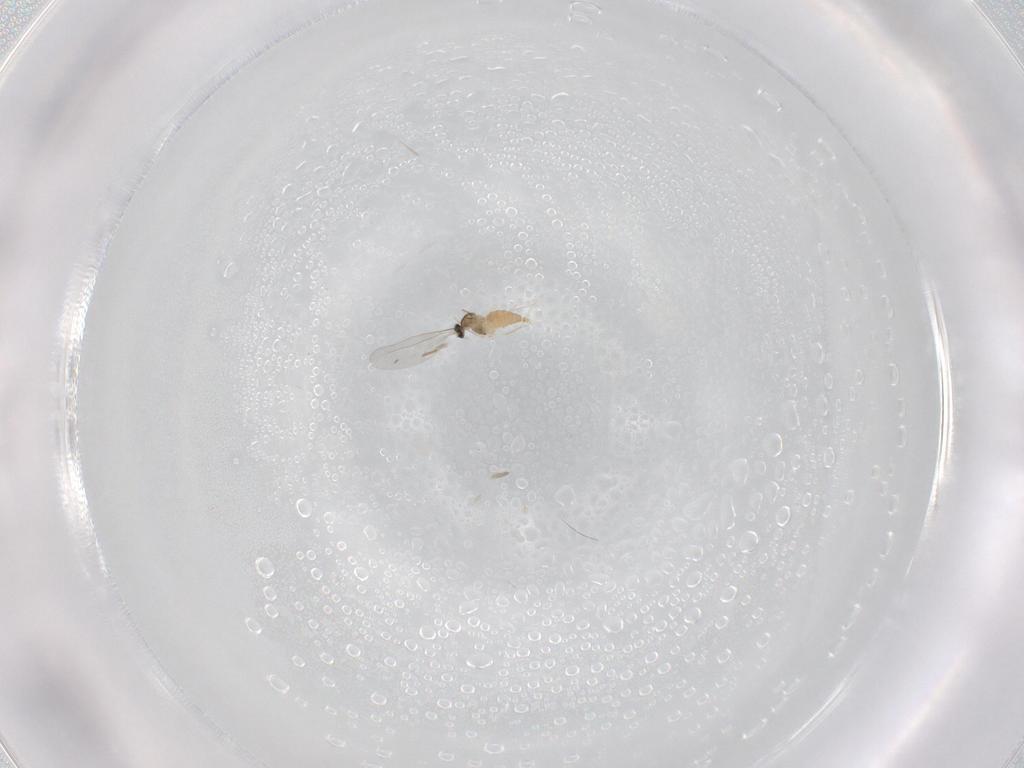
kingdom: Animalia
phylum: Arthropoda
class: Insecta
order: Diptera
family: Cecidomyiidae
